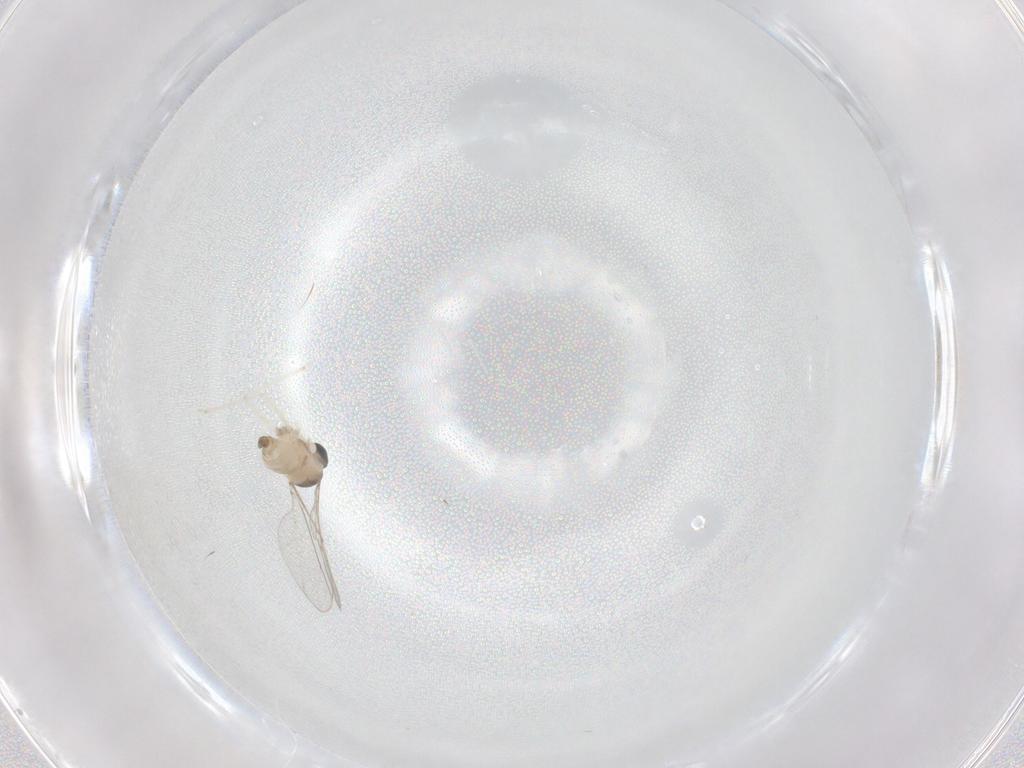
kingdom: Animalia
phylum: Arthropoda
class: Insecta
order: Diptera
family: Cecidomyiidae
